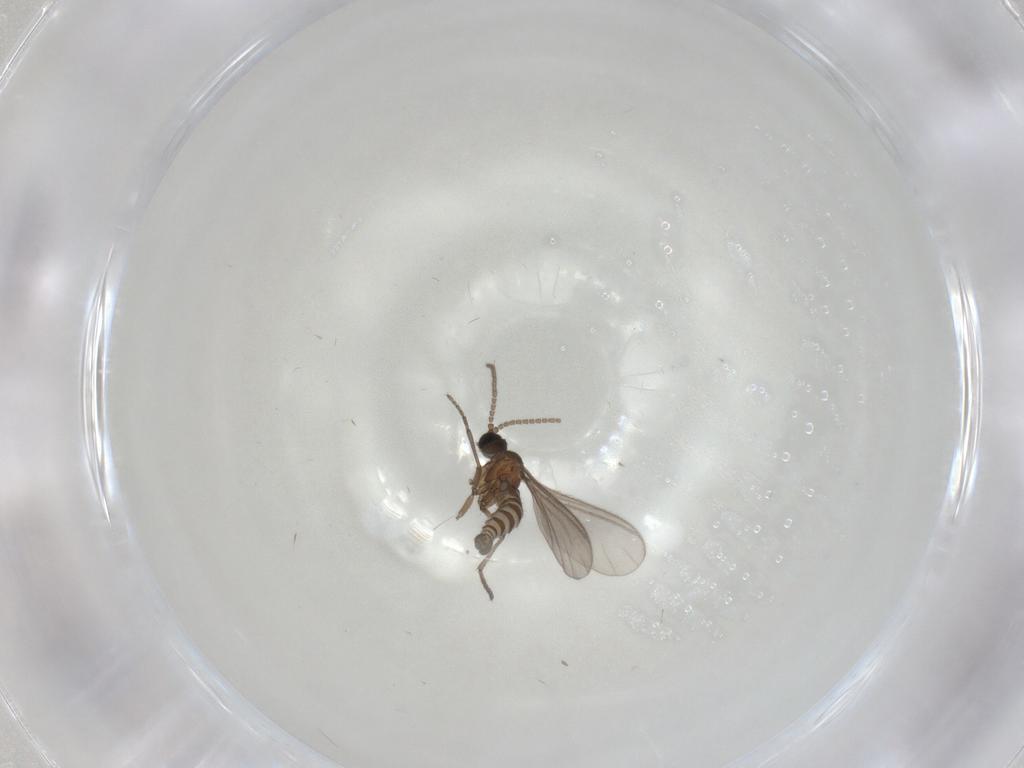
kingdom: Animalia
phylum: Arthropoda
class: Insecta
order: Diptera
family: Sciaridae
